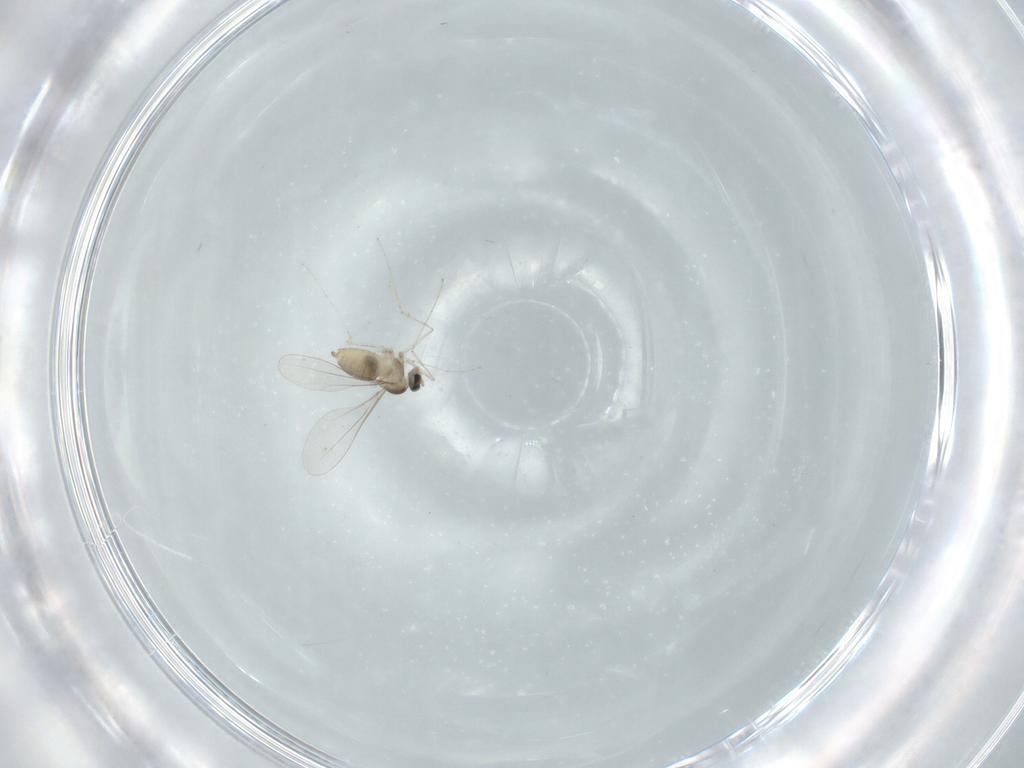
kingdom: Animalia
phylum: Arthropoda
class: Insecta
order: Diptera
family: Cecidomyiidae
